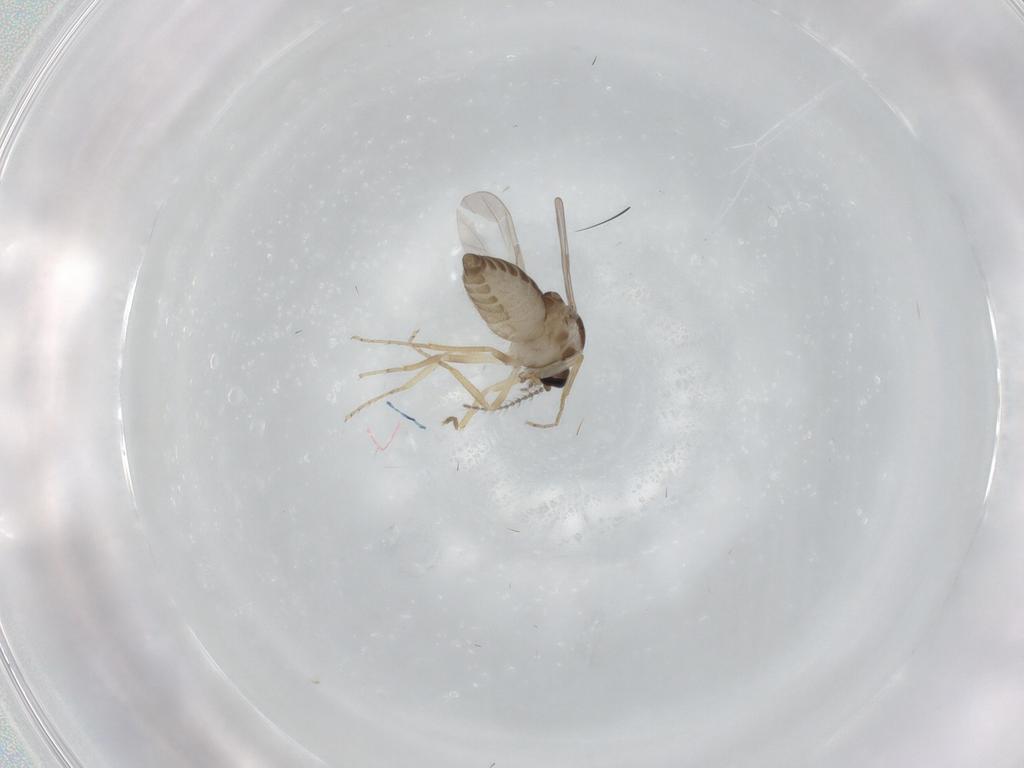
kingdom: Animalia
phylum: Arthropoda
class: Insecta
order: Diptera
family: Ceratopogonidae
